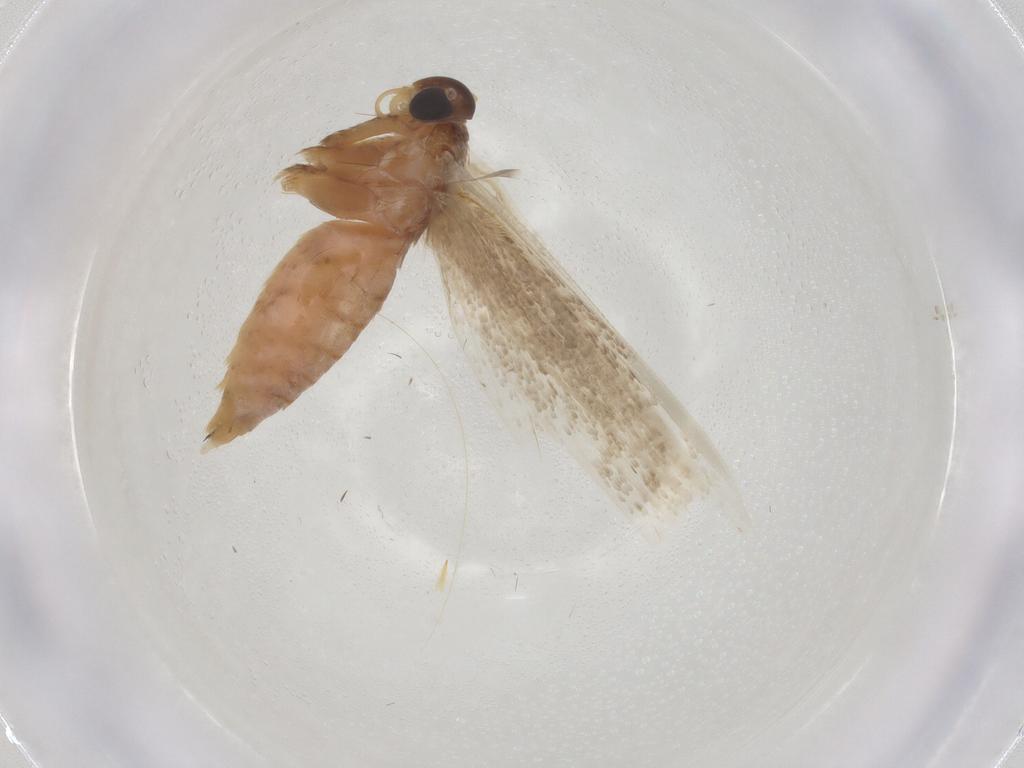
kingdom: Animalia
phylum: Arthropoda
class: Insecta
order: Lepidoptera
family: Blastobasidae
